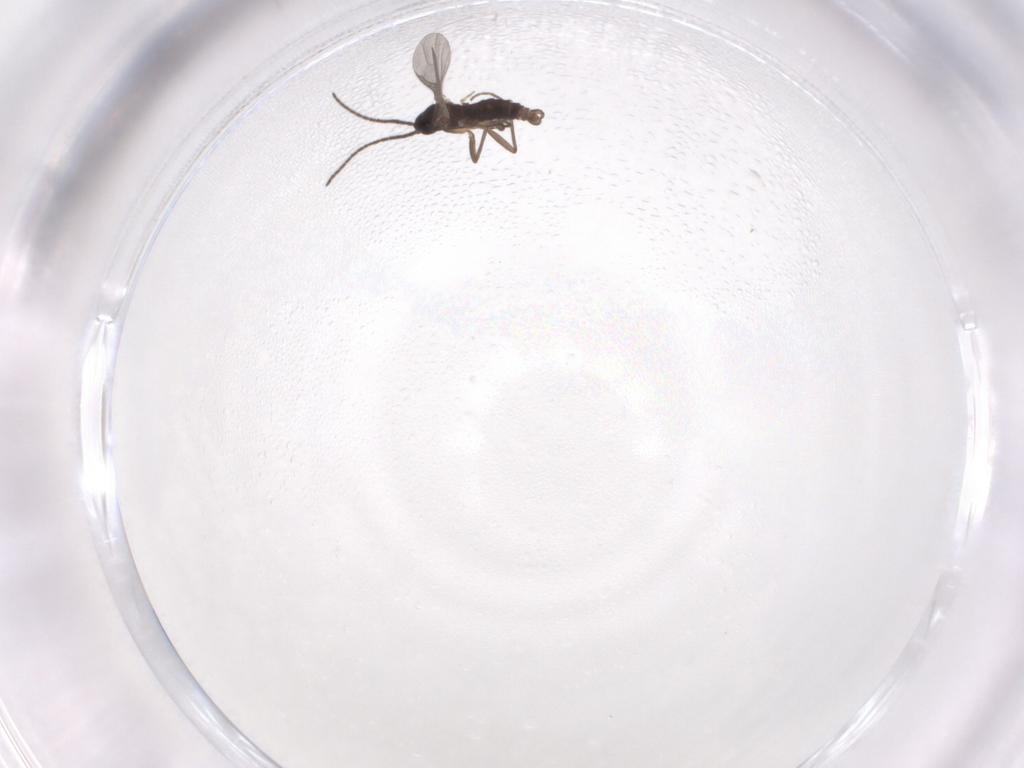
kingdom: Animalia
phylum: Arthropoda
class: Insecta
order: Diptera
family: Sciaridae
